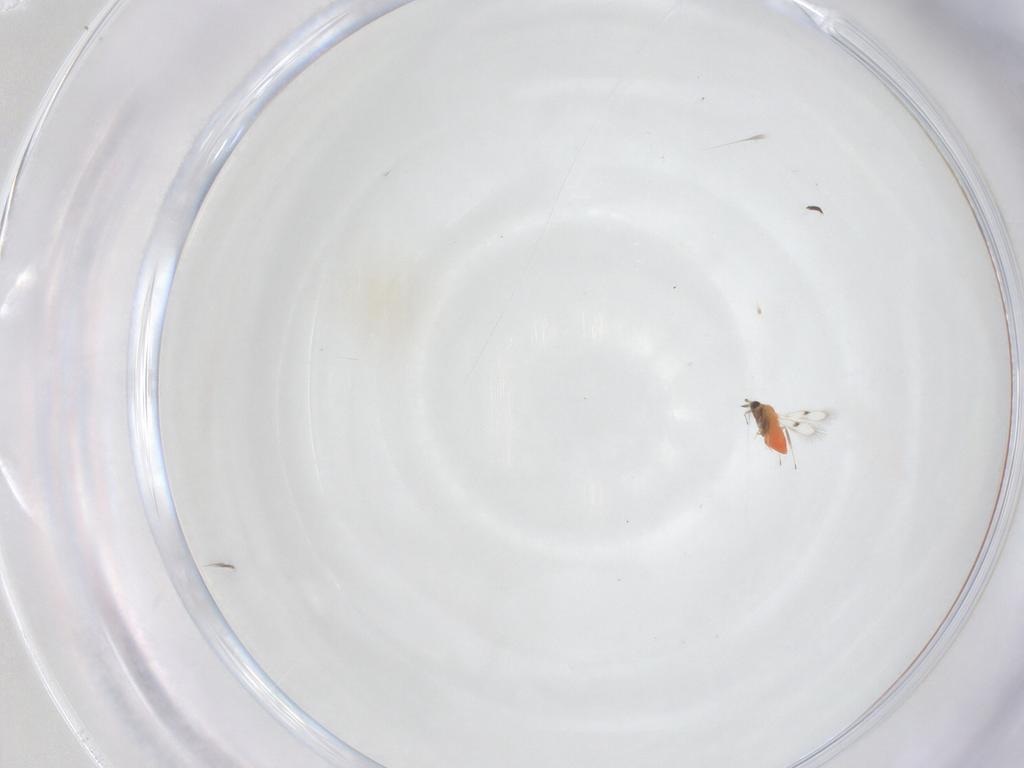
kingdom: Animalia
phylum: Arthropoda
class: Insecta
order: Hymenoptera
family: Trichogrammatidae
